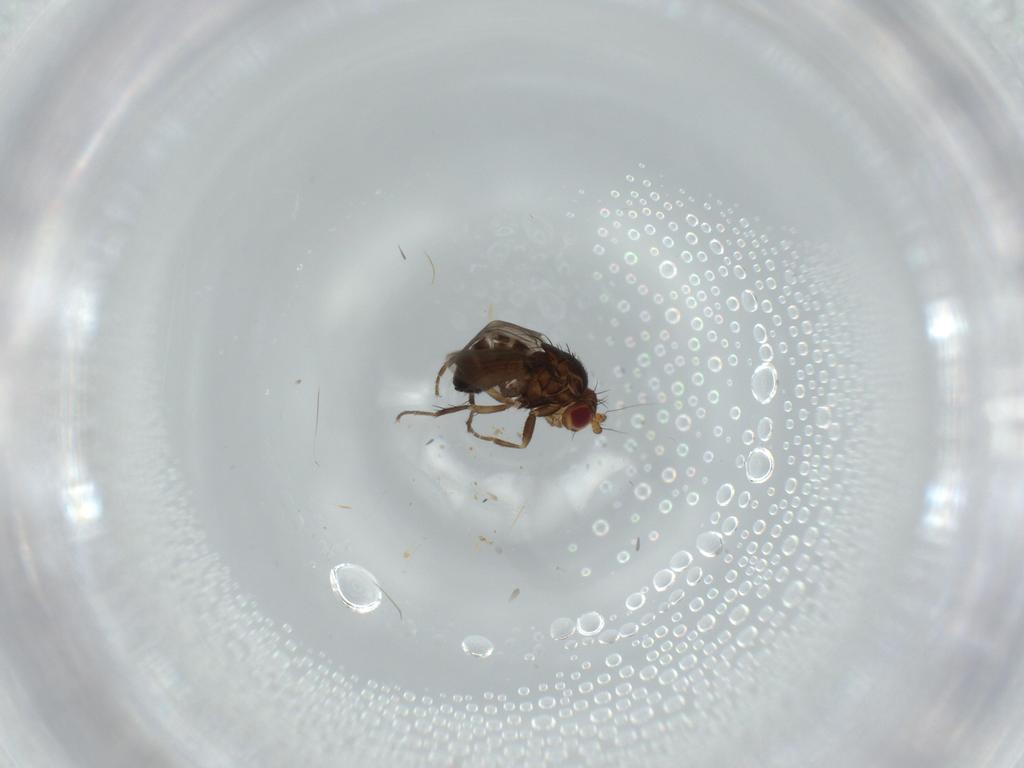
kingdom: Animalia
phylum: Arthropoda
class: Insecta
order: Diptera
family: Sphaeroceridae
